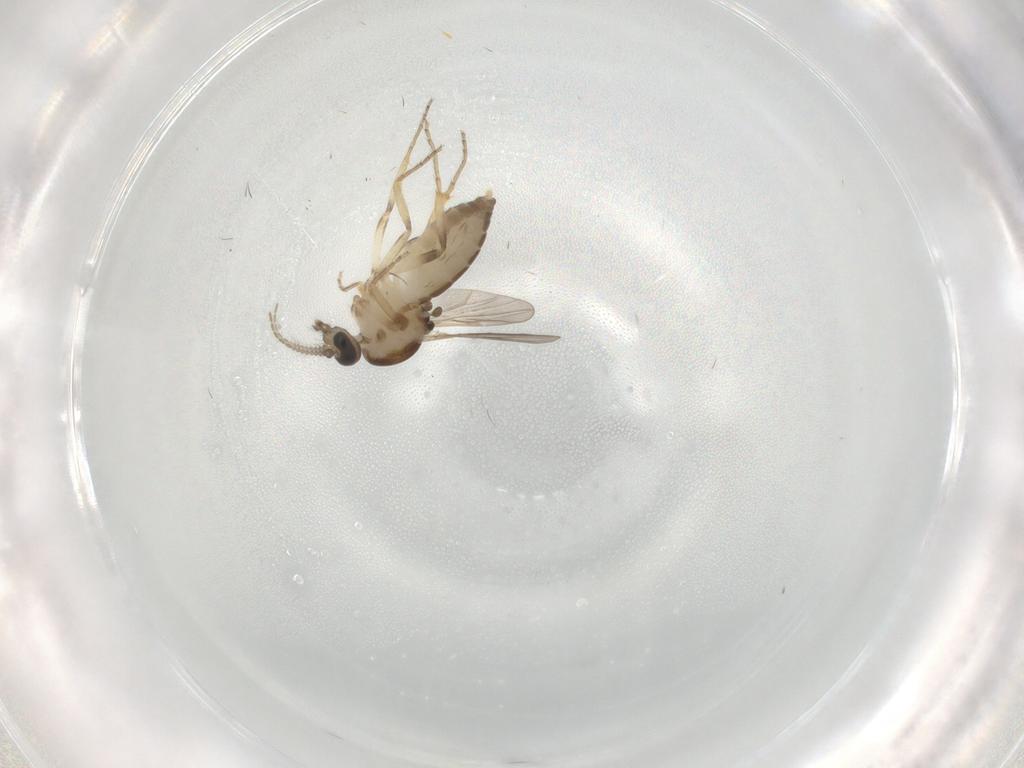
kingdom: Animalia
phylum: Arthropoda
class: Insecta
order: Diptera
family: Ceratopogonidae
